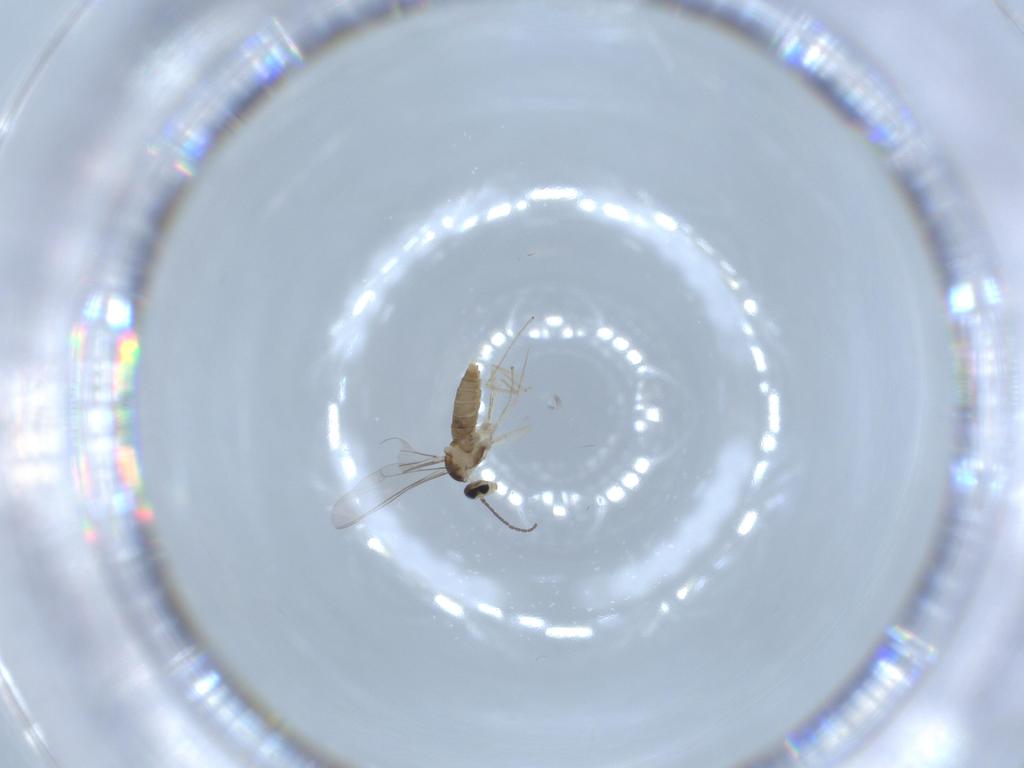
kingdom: Animalia
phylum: Arthropoda
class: Insecta
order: Diptera
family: Cecidomyiidae
